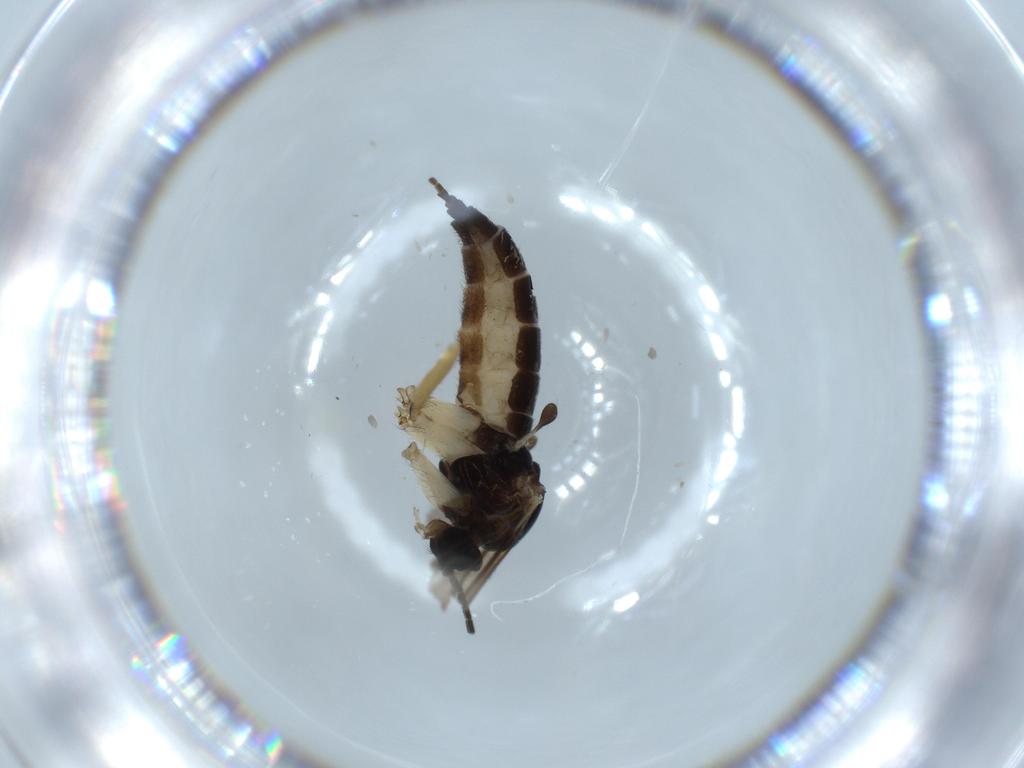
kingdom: Animalia
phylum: Arthropoda
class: Insecta
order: Diptera
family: Sciaridae
